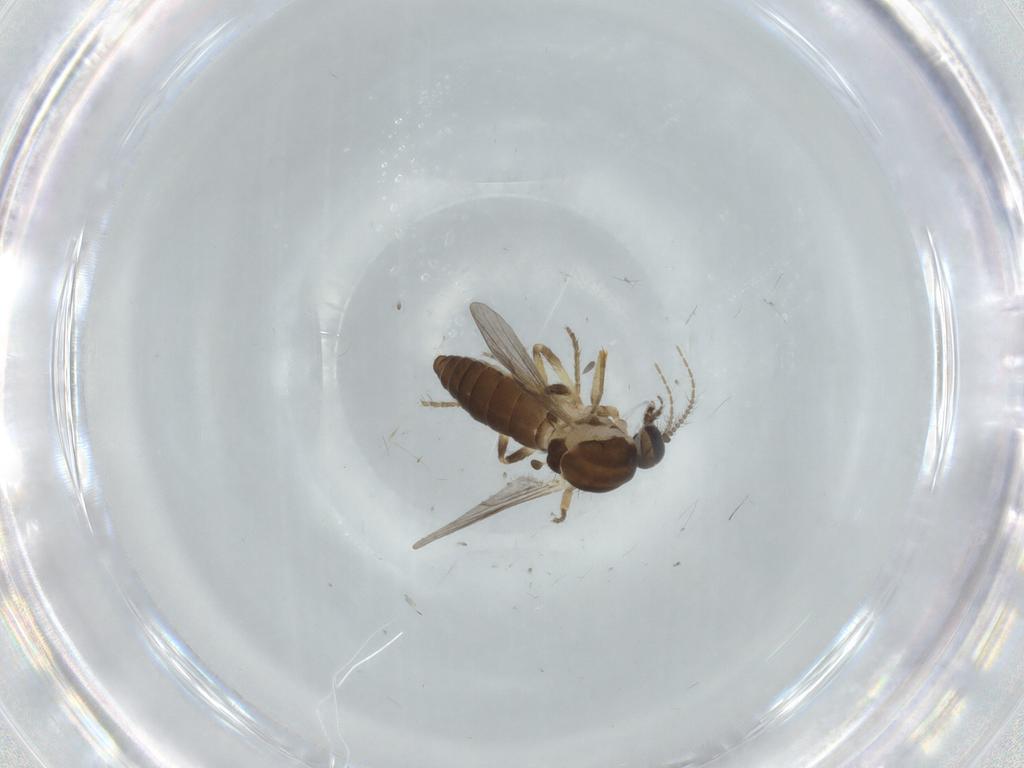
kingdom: Animalia
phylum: Arthropoda
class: Insecta
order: Diptera
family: Ceratopogonidae
